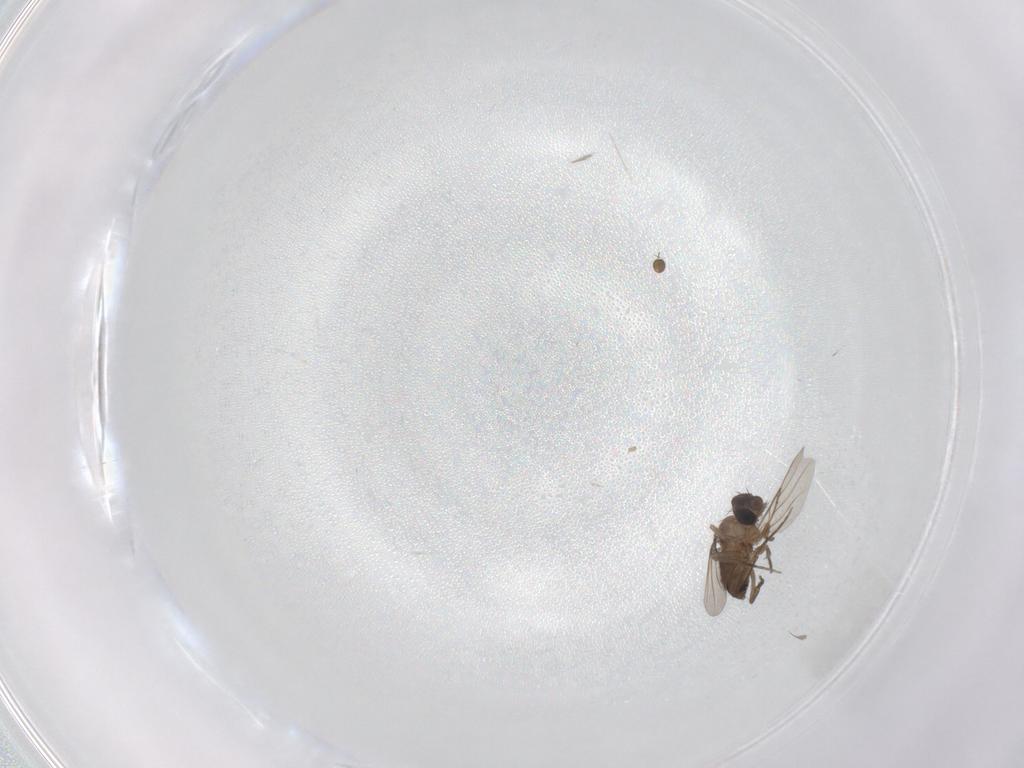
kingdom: Animalia
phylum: Arthropoda
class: Insecta
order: Diptera
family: Phoridae
